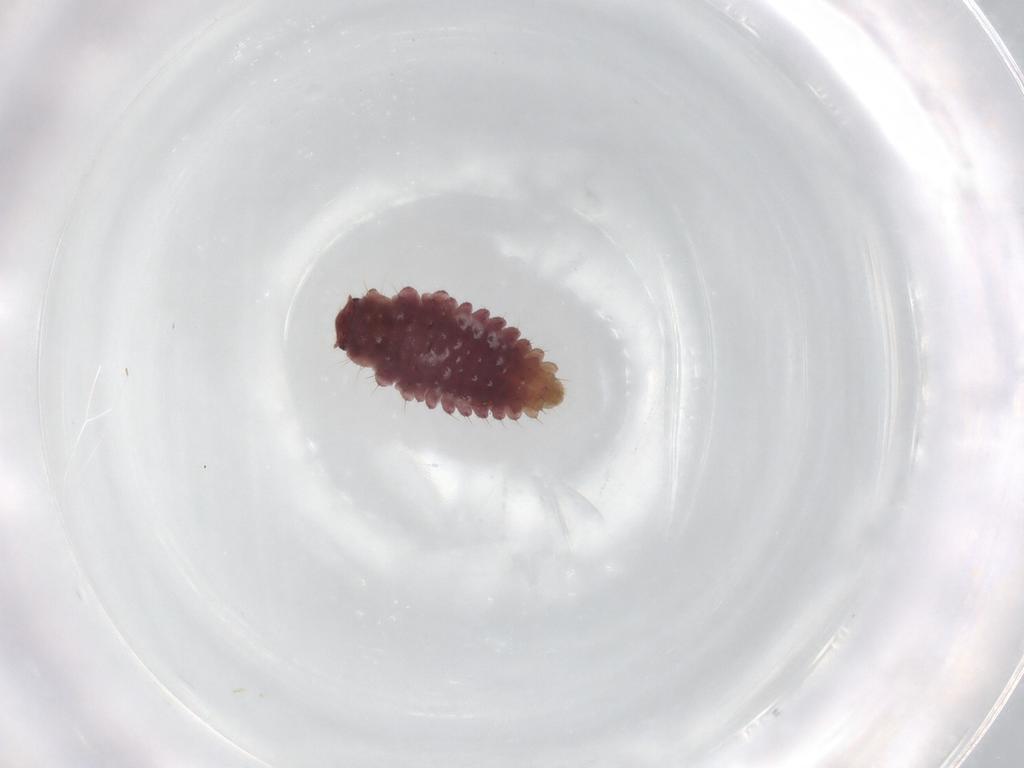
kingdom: Animalia
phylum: Arthropoda
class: Insecta
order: Coleoptera
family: Coccinellidae
